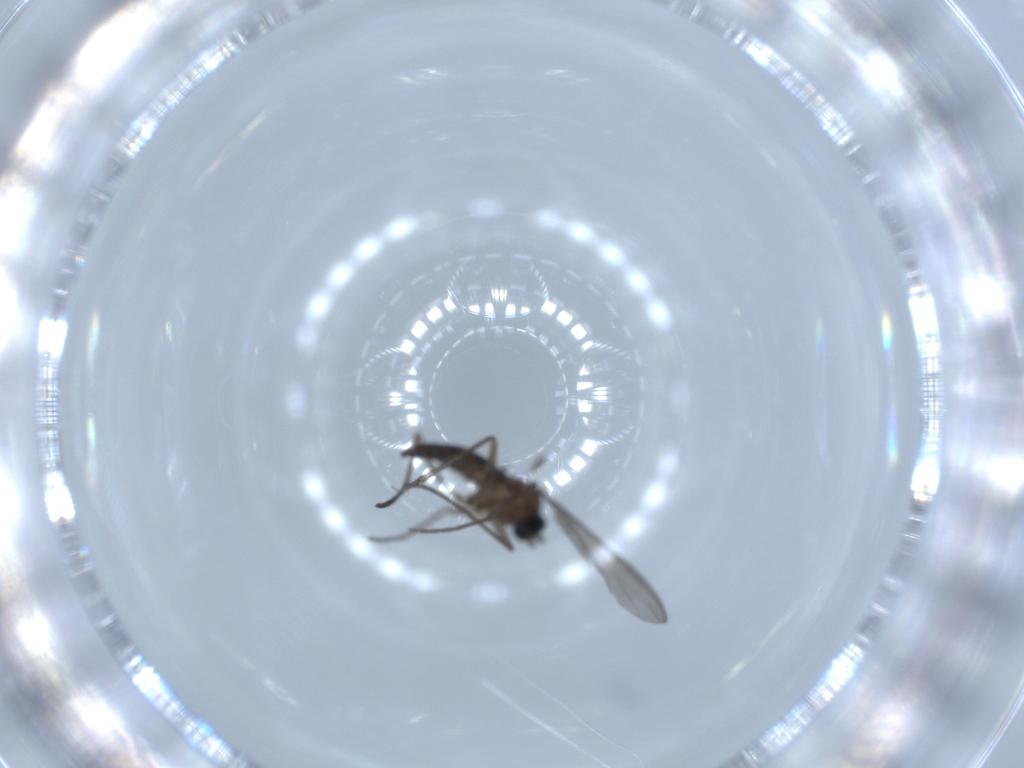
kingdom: Animalia
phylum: Arthropoda
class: Insecta
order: Diptera
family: Sciaridae
